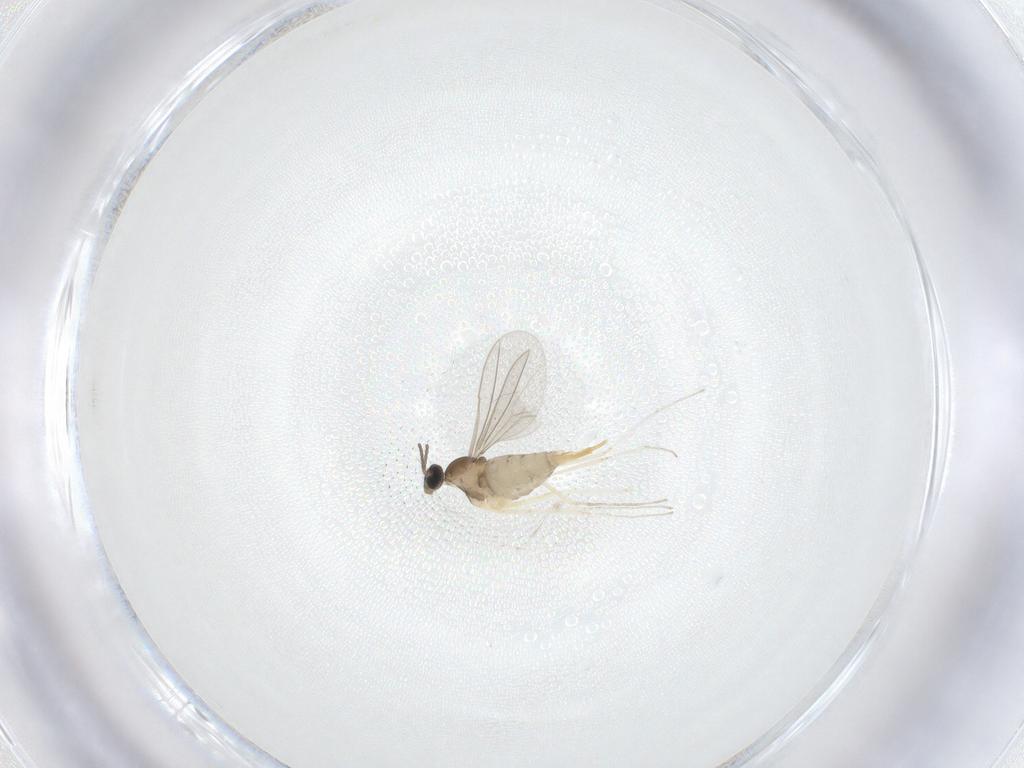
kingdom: Animalia
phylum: Arthropoda
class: Insecta
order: Diptera
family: Cecidomyiidae
